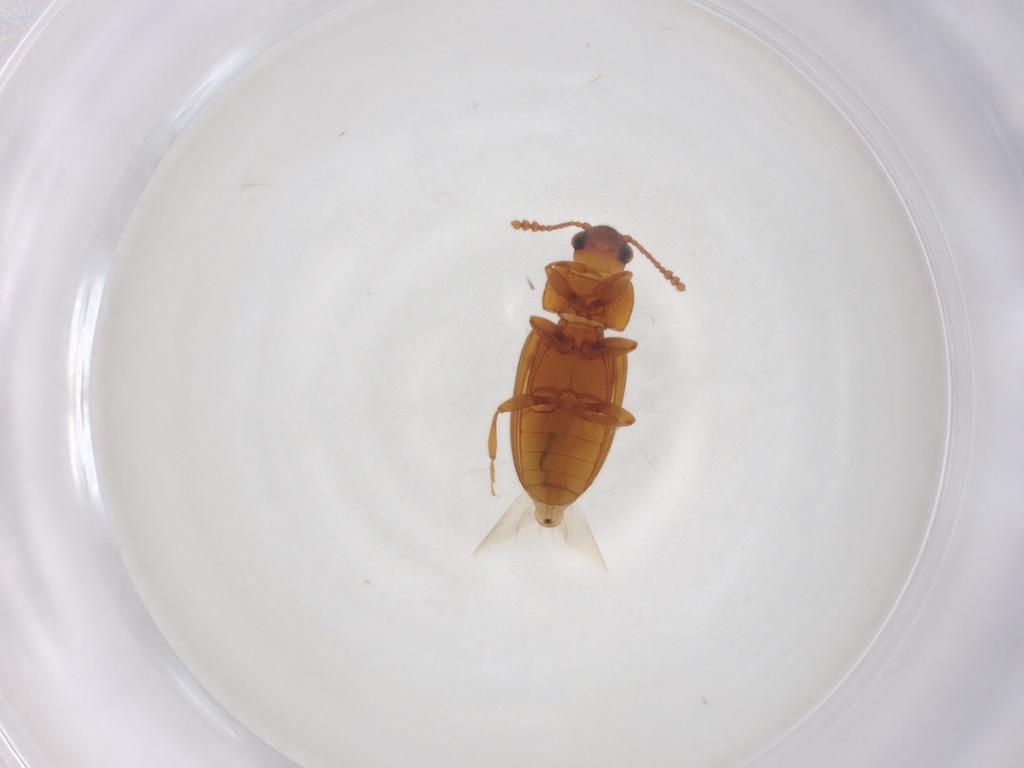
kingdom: Animalia
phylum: Arthropoda
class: Insecta
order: Coleoptera
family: Erotylidae
